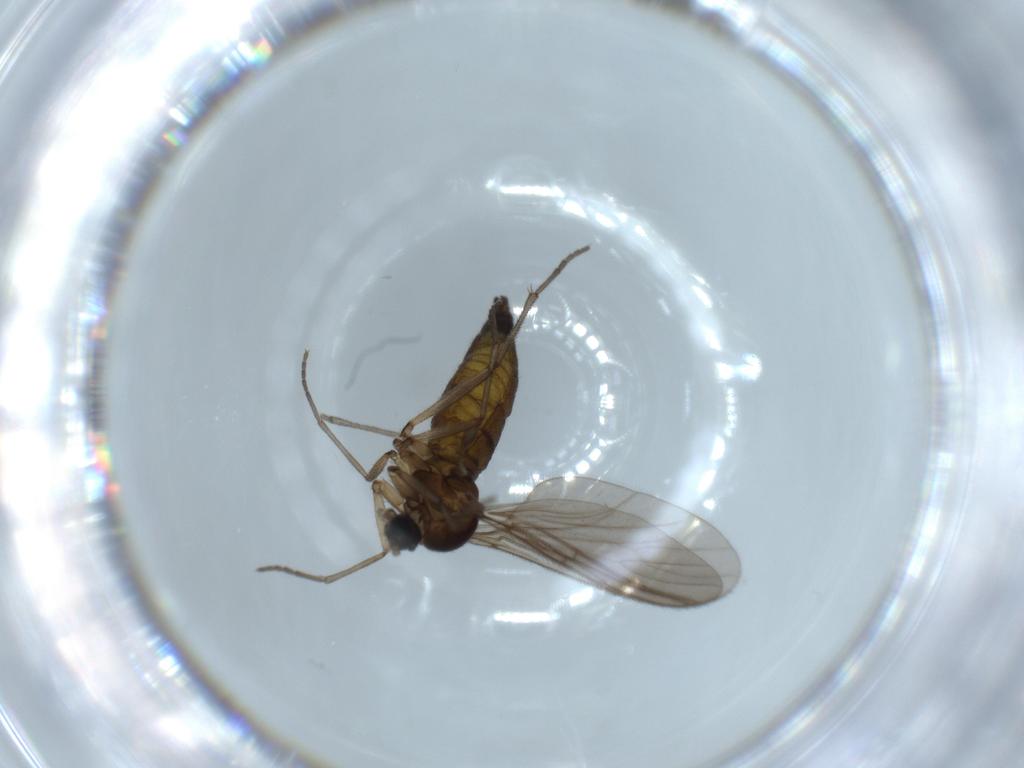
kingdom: Animalia
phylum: Arthropoda
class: Insecta
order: Diptera
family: Sciaridae
